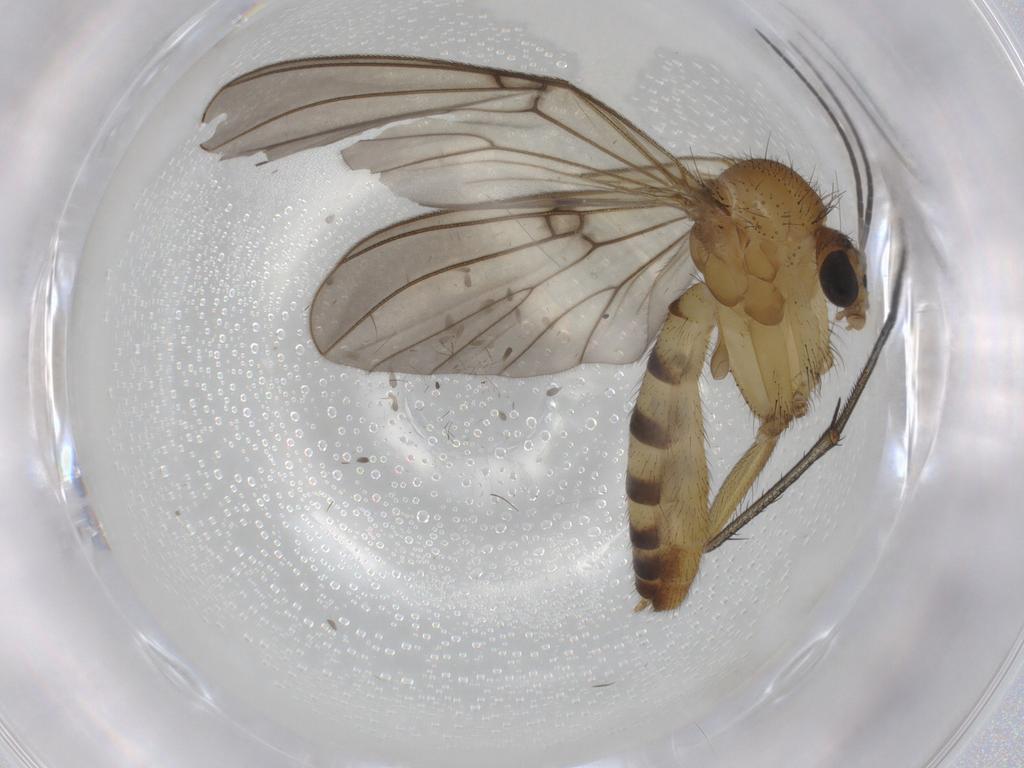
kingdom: Animalia
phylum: Arthropoda
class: Insecta
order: Diptera
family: Mycetophilidae
